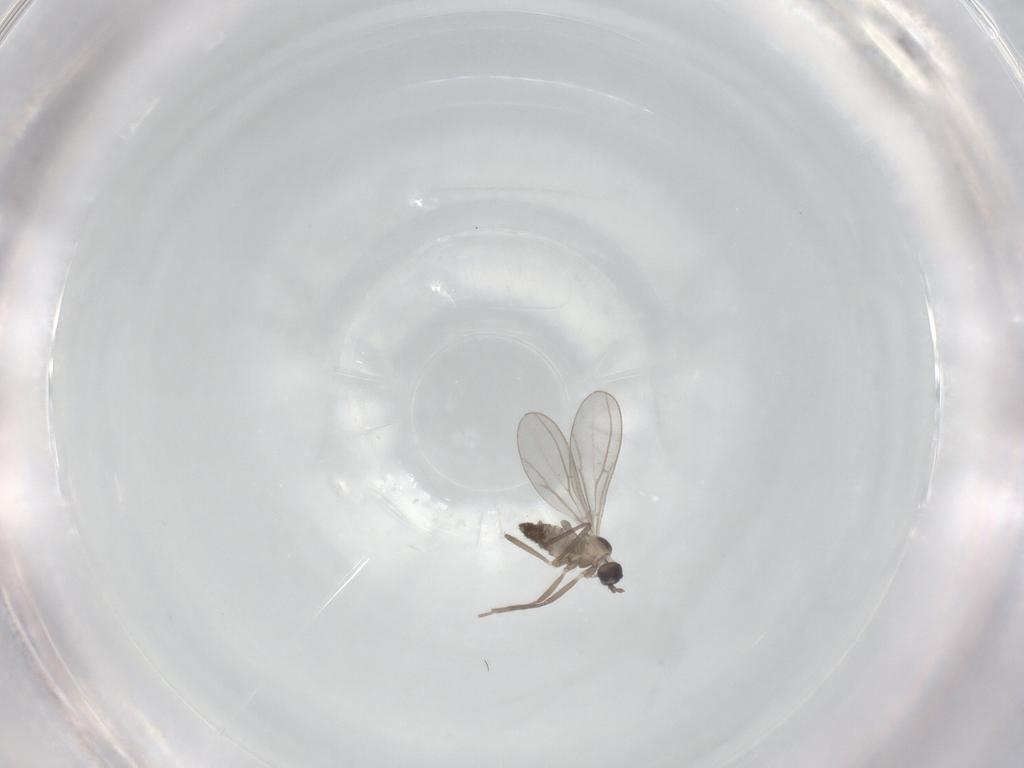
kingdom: Animalia
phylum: Arthropoda
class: Insecta
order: Diptera
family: Cecidomyiidae
